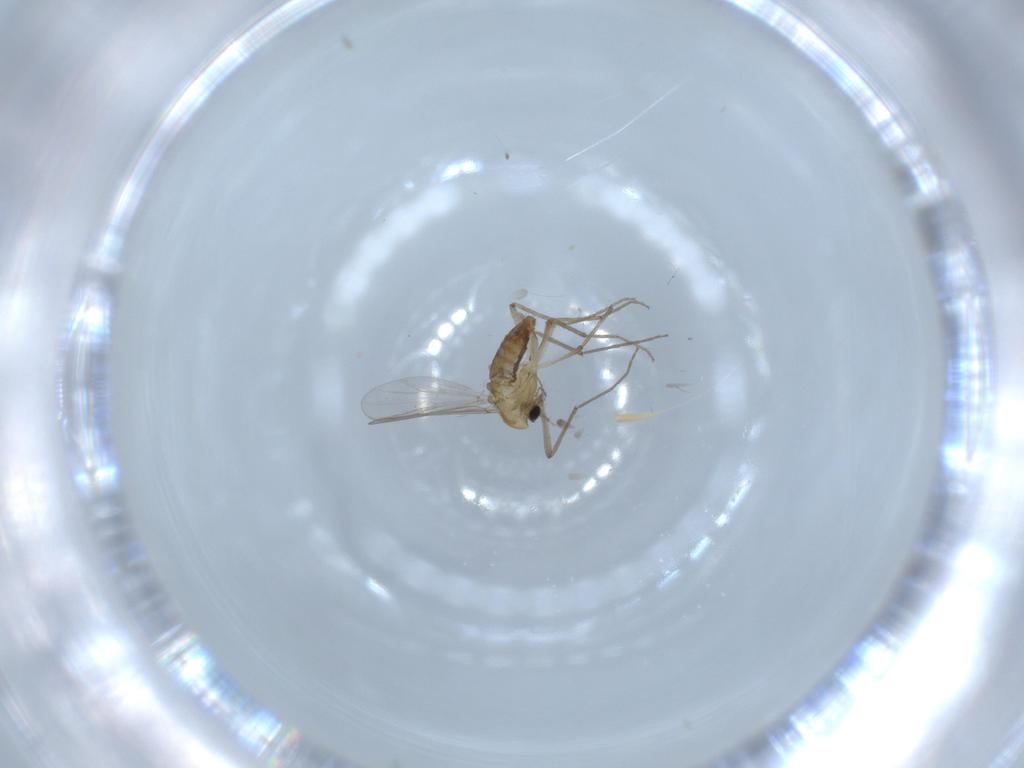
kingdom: Animalia
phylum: Arthropoda
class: Insecta
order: Diptera
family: Chironomidae
